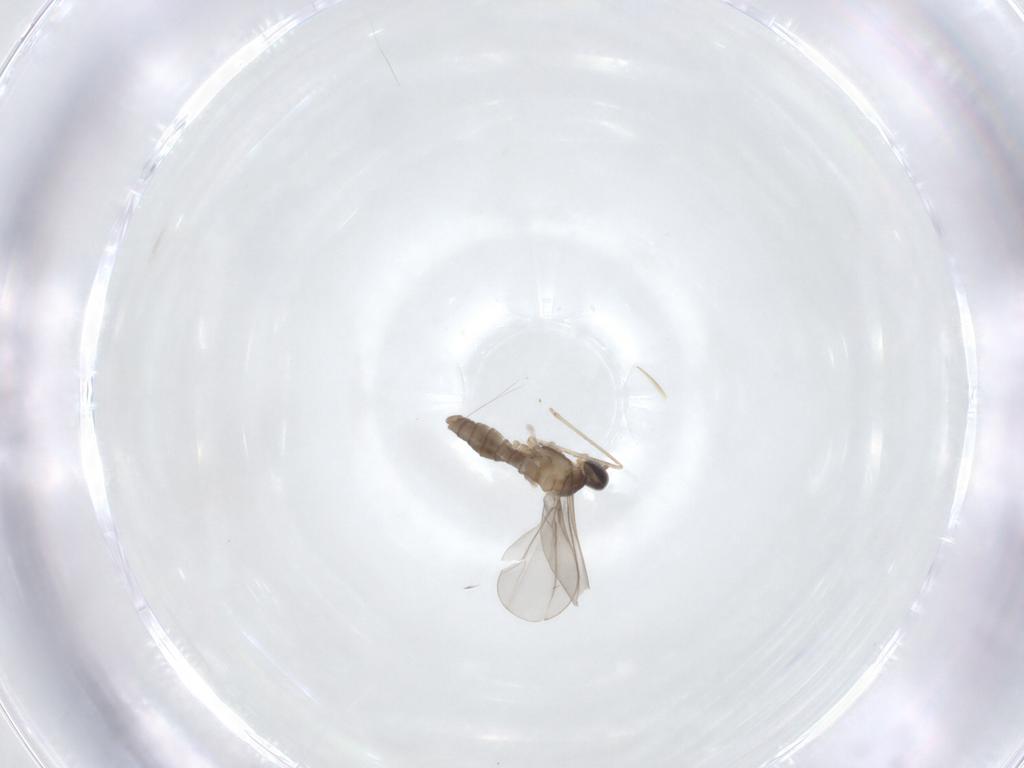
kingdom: Animalia
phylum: Arthropoda
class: Insecta
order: Diptera
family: Cecidomyiidae
